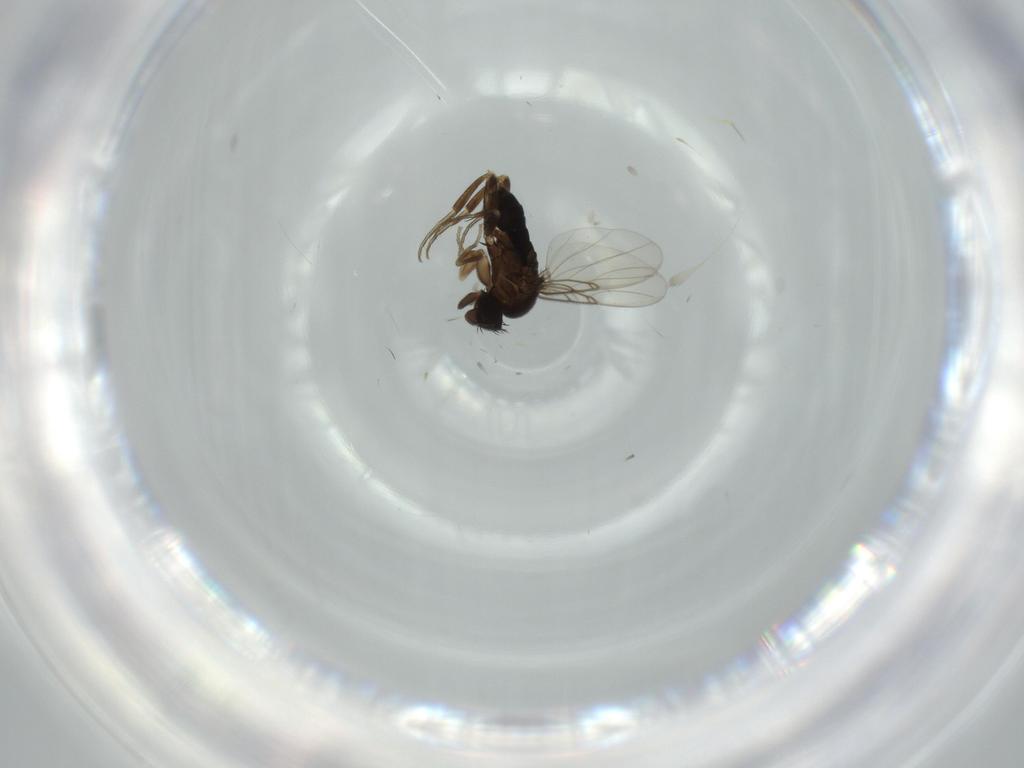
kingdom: Animalia
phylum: Arthropoda
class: Insecta
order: Diptera
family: Phoridae
